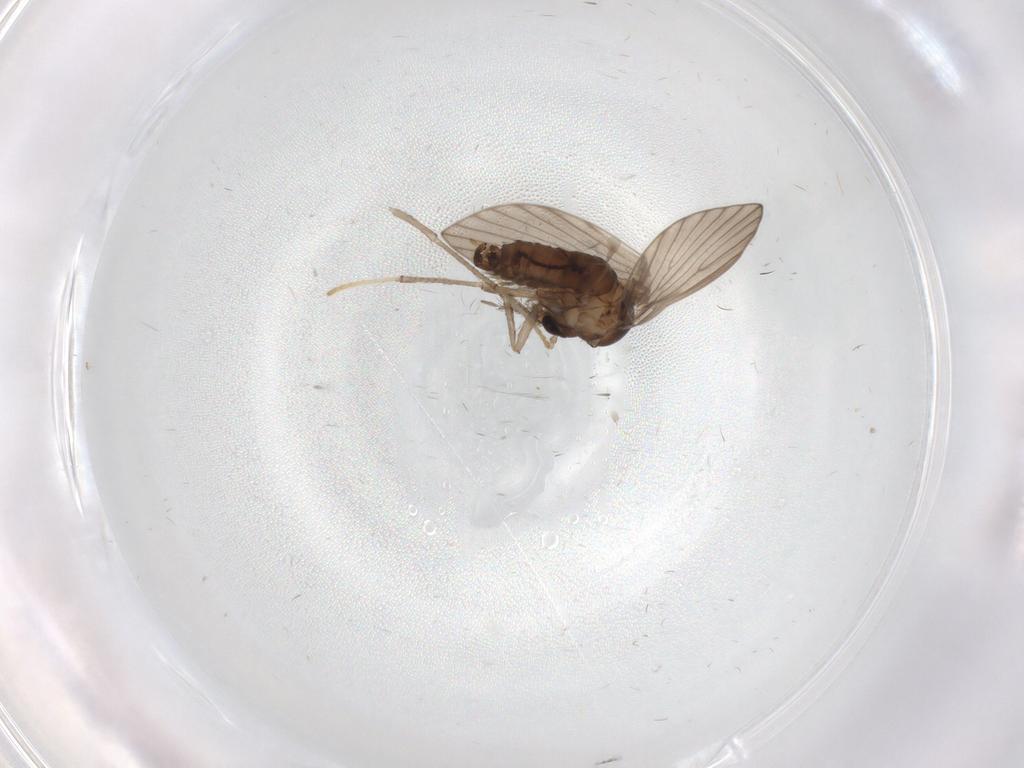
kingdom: Animalia
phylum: Arthropoda
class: Insecta
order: Diptera
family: Psychodidae
